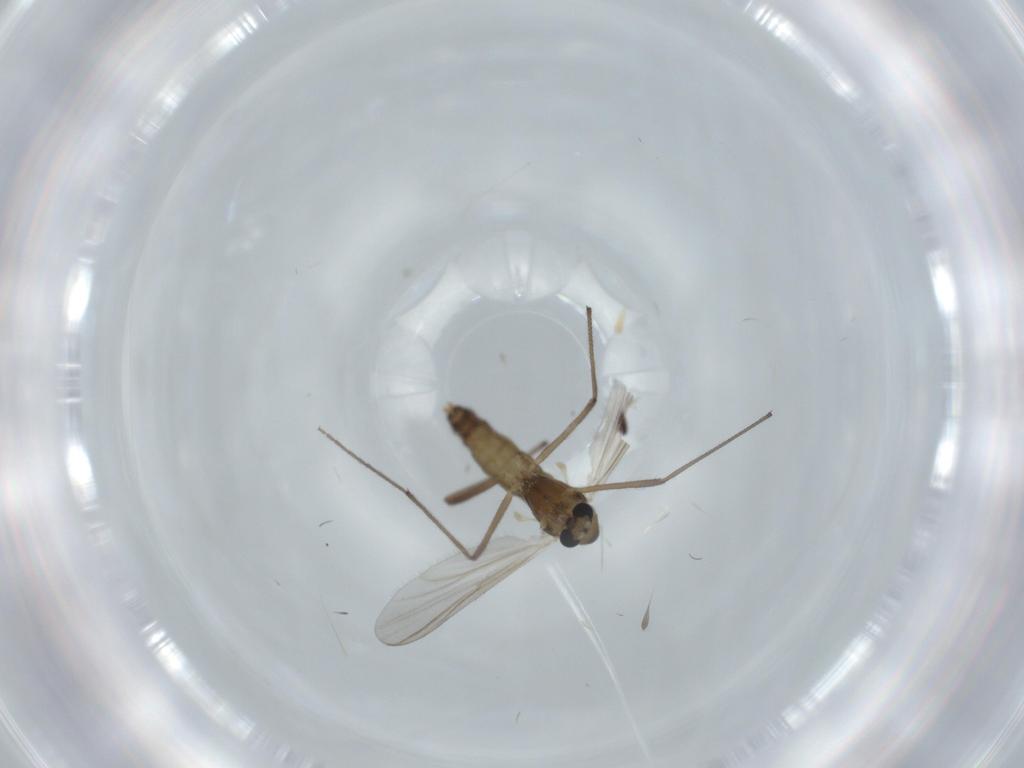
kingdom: Animalia
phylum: Arthropoda
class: Insecta
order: Diptera
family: Chironomidae
